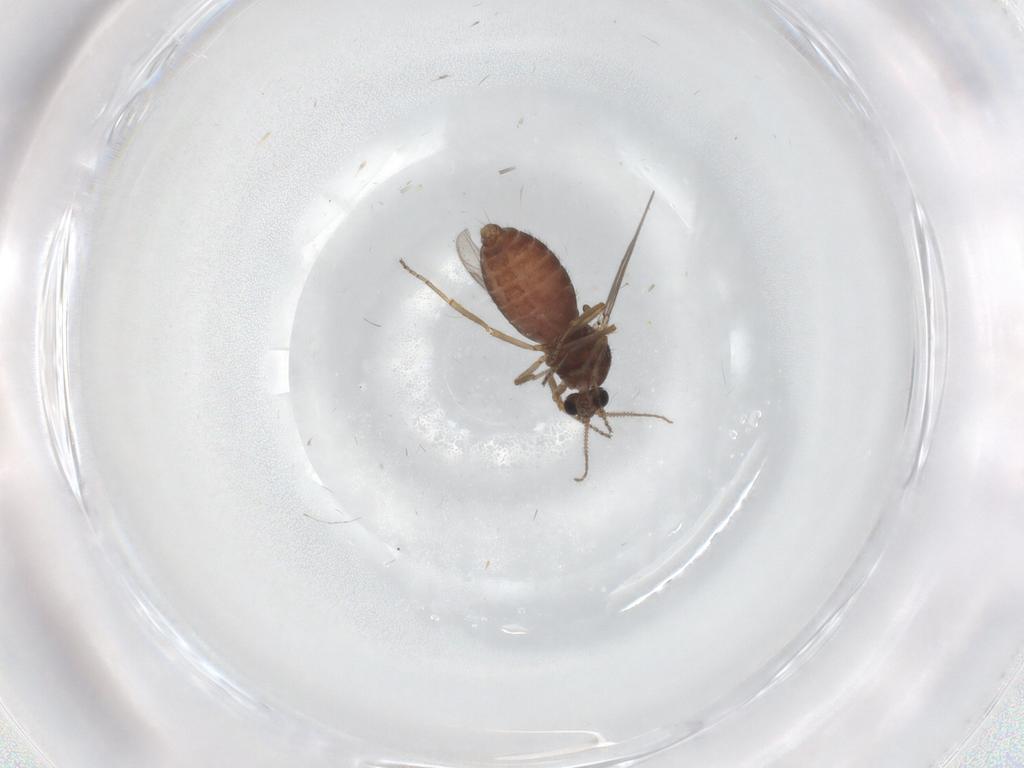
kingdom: Animalia
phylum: Arthropoda
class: Insecta
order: Diptera
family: Ceratopogonidae
